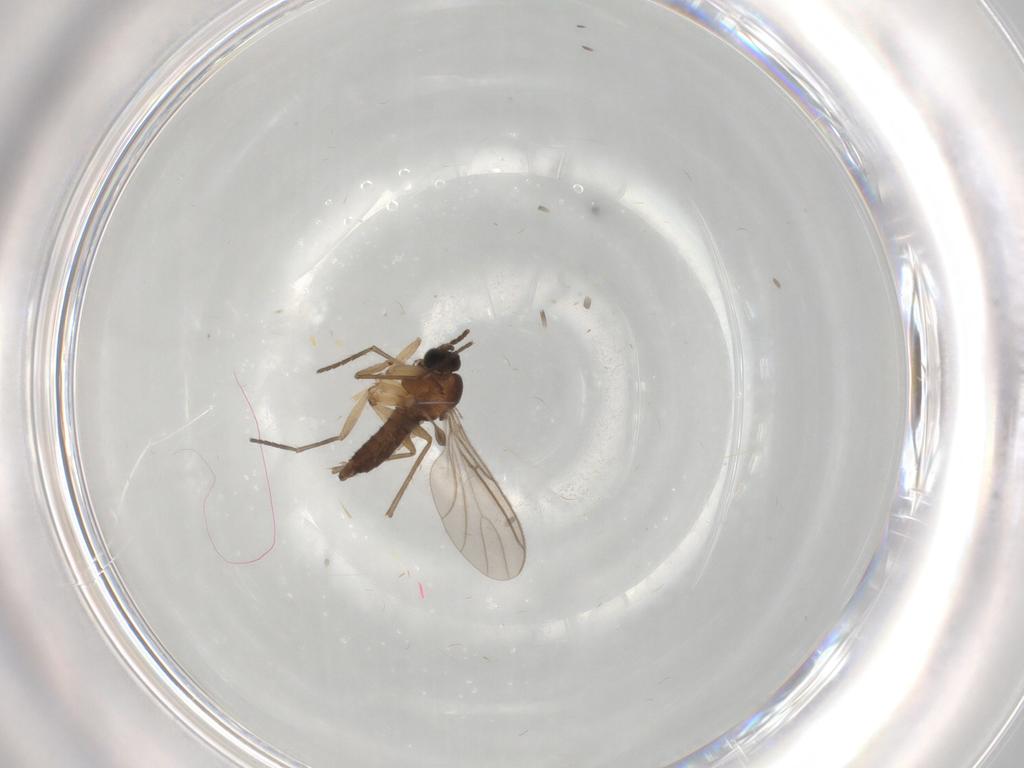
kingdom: Animalia
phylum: Arthropoda
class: Insecta
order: Diptera
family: Sciaridae
